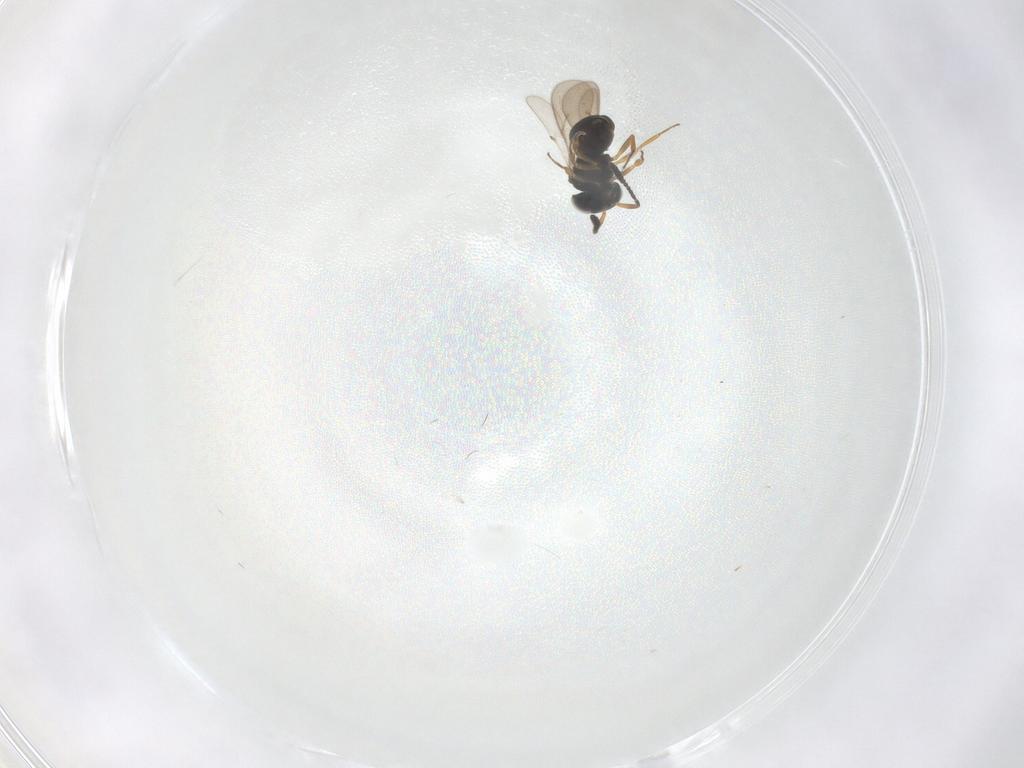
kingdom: Animalia
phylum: Arthropoda
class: Insecta
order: Hymenoptera
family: Scelionidae
